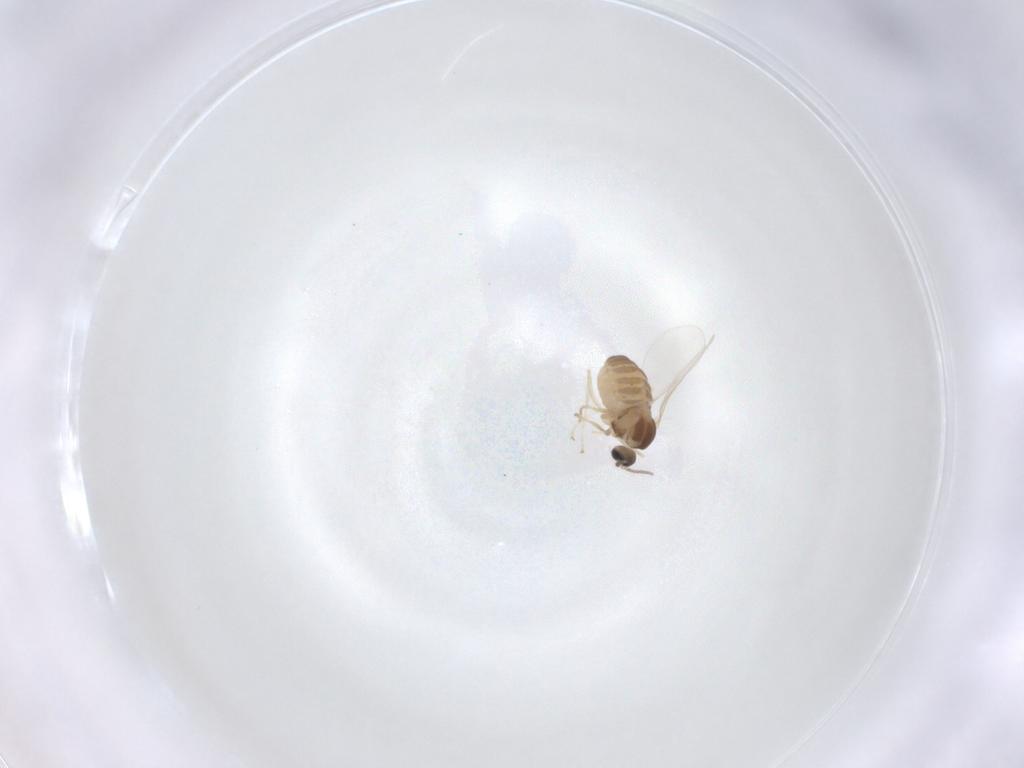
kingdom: Animalia
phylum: Arthropoda
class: Insecta
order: Diptera
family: Cecidomyiidae
